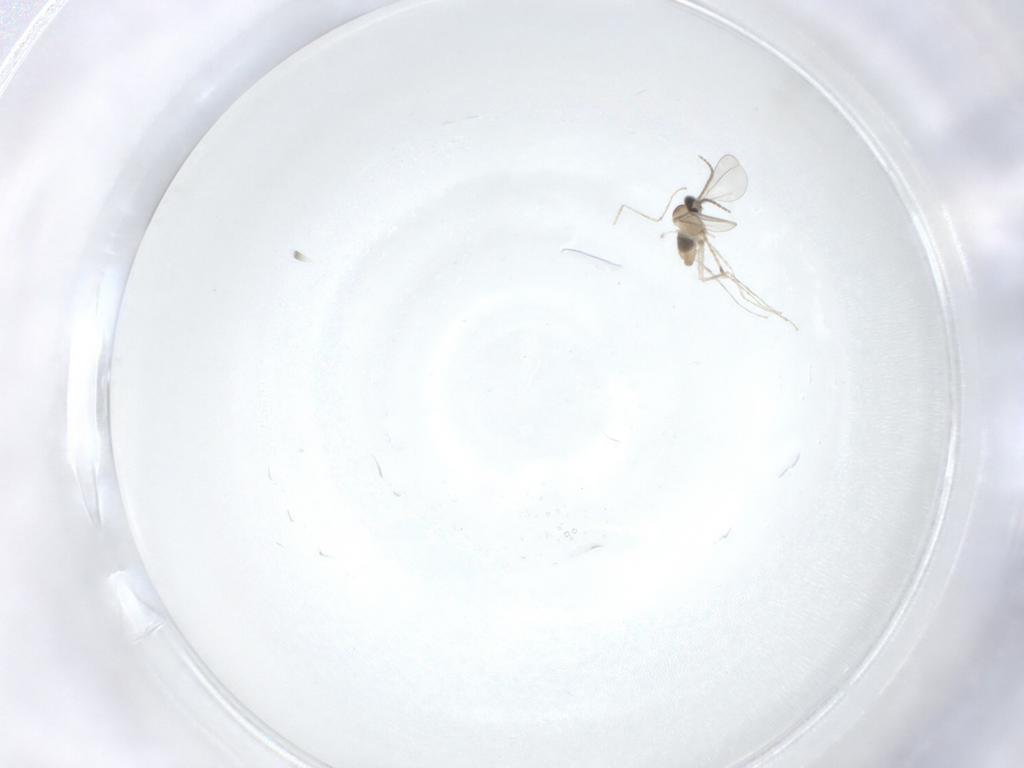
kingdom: Animalia
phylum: Arthropoda
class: Insecta
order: Diptera
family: Cecidomyiidae
